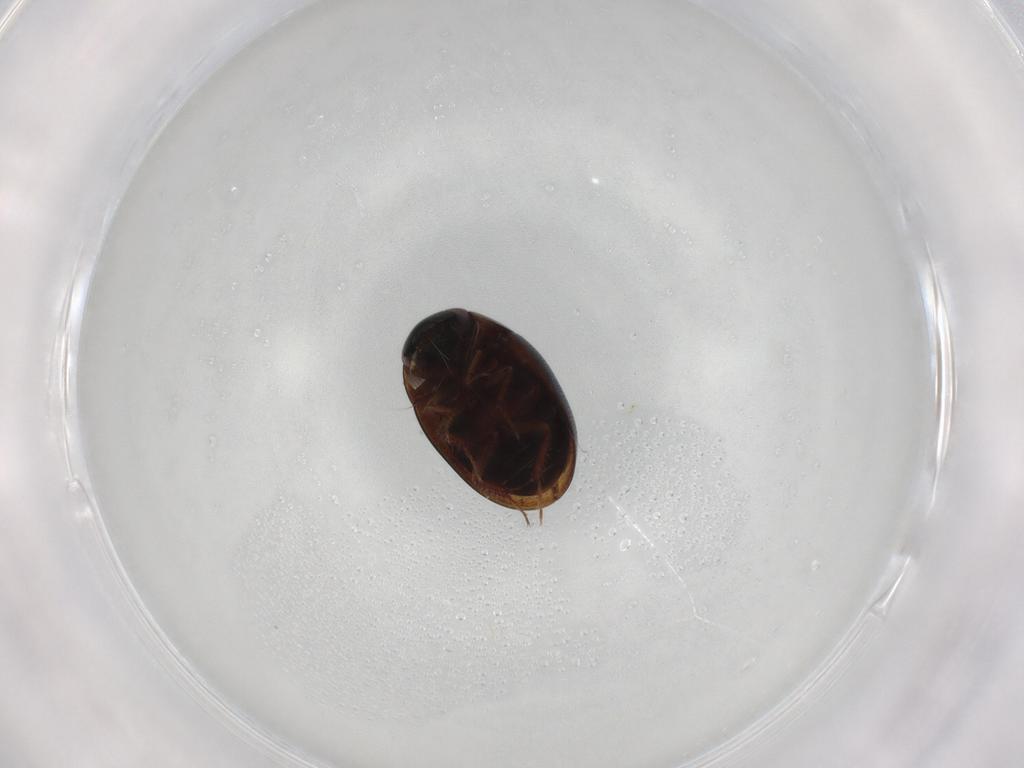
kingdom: Animalia
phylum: Arthropoda
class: Insecta
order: Coleoptera
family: Hydrophilidae
